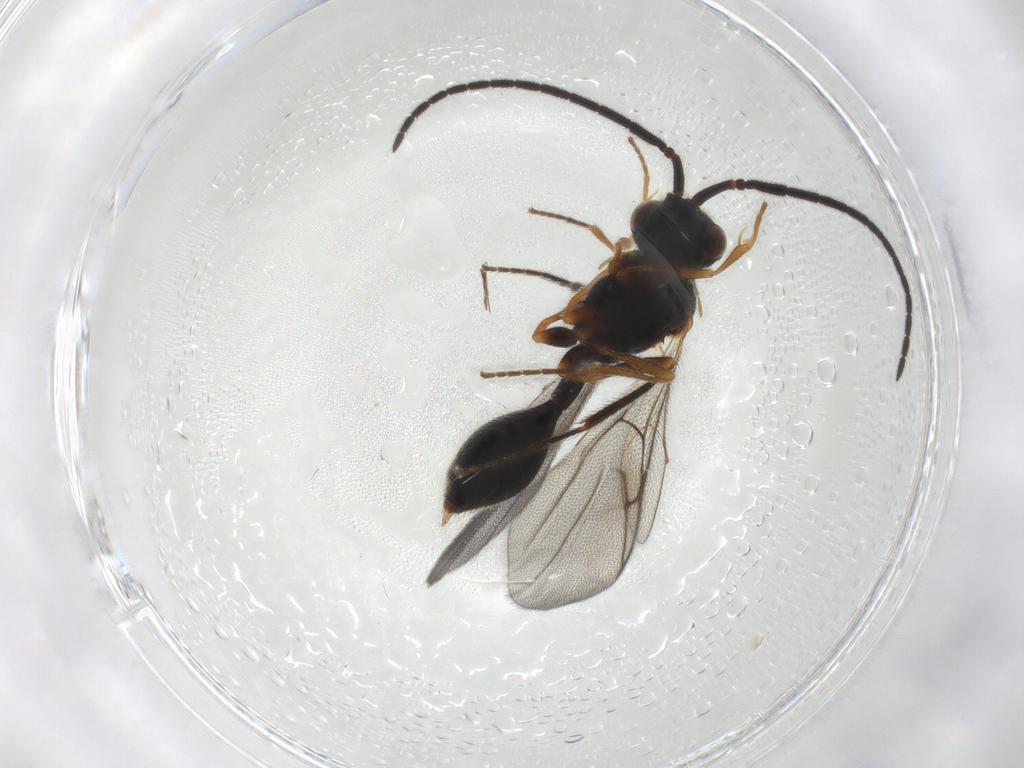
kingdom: Animalia
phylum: Arthropoda
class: Insecta
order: Hymenoptera
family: Diapriidae
